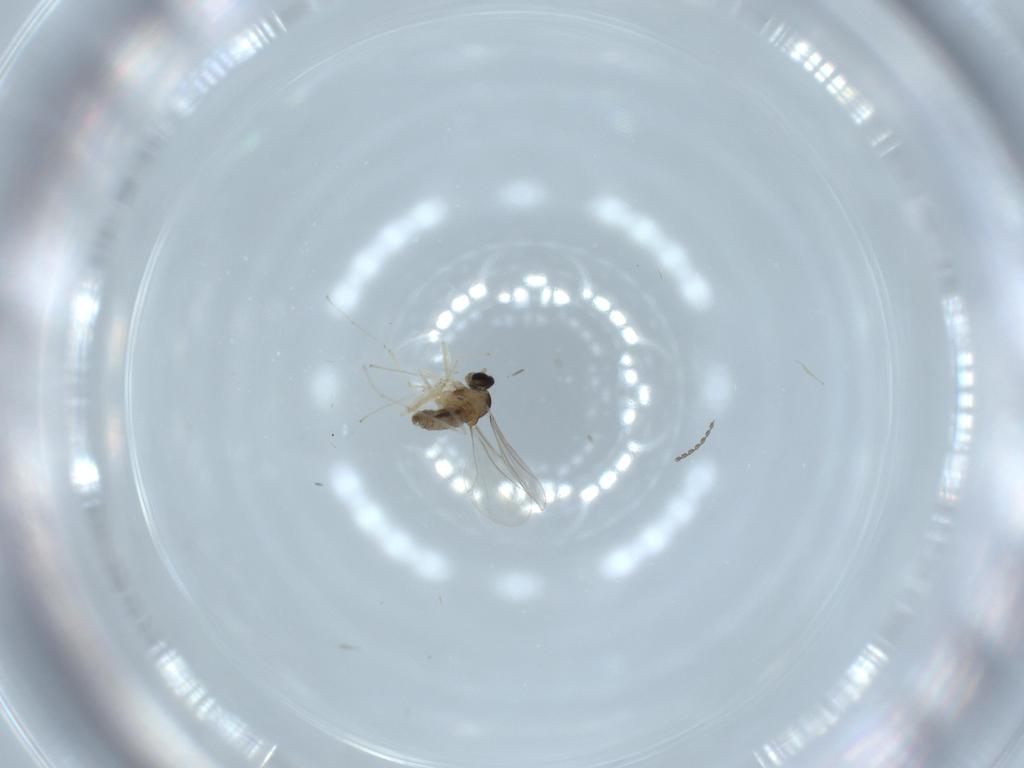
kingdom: Animalia
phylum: Arthropoda
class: Insecta
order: Diptera
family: Cecidomyiidae
